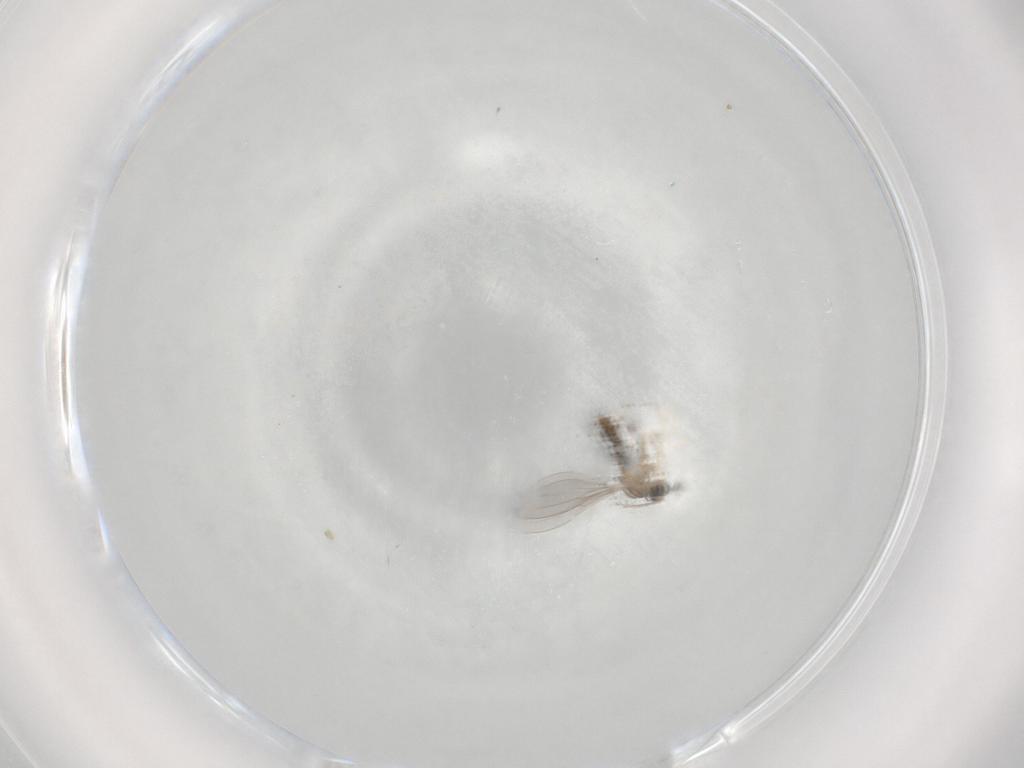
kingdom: Animalia
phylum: Arthropoda
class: Insecta
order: Diptera
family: Cecidomyiidae
